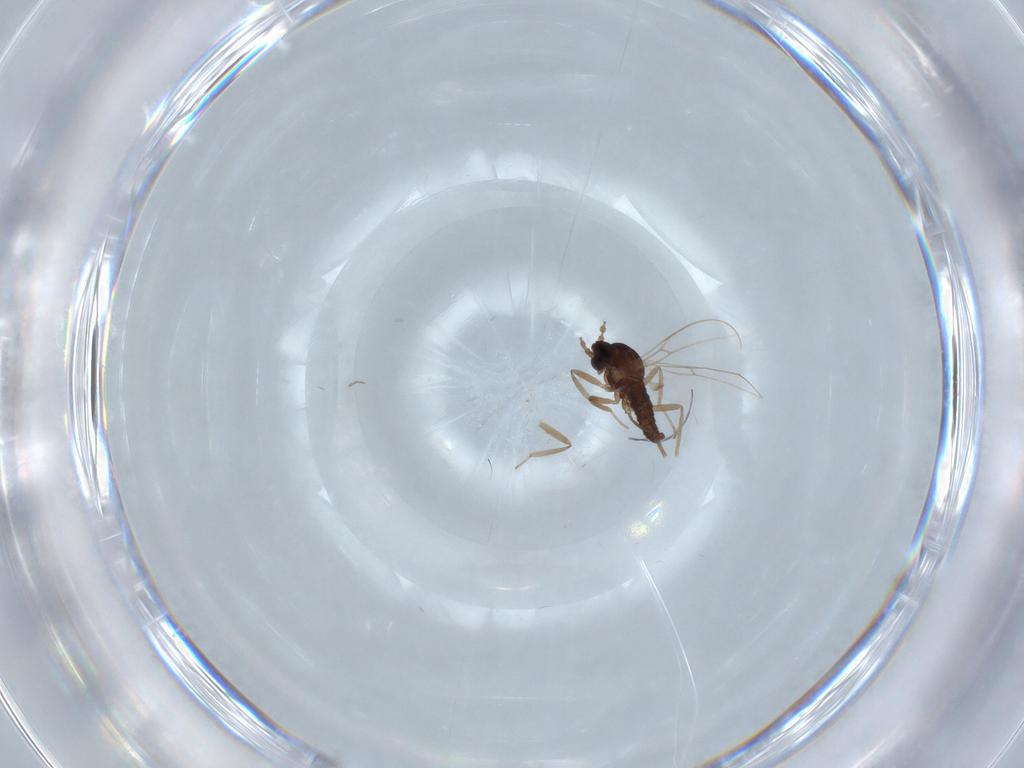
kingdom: Animalia
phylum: Arthropoda
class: Insecta
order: Diptera
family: Cecidomyiidae
